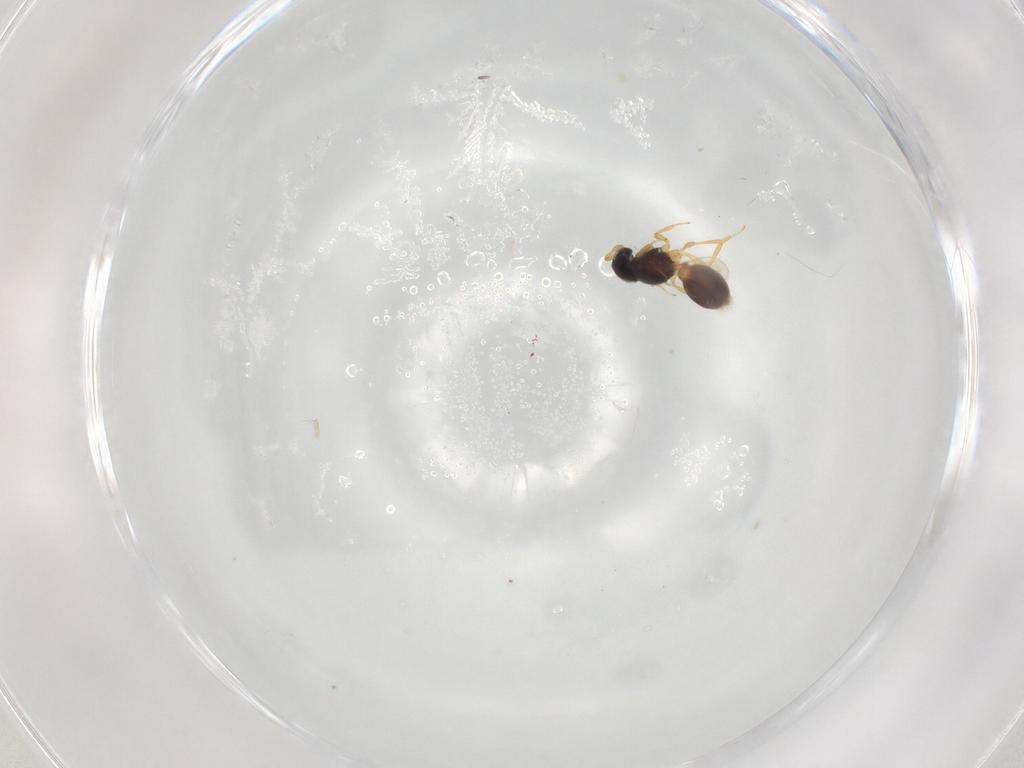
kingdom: Animalia
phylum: Arthropoda
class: Insecta
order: Hymenoptera
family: Scelionidae
